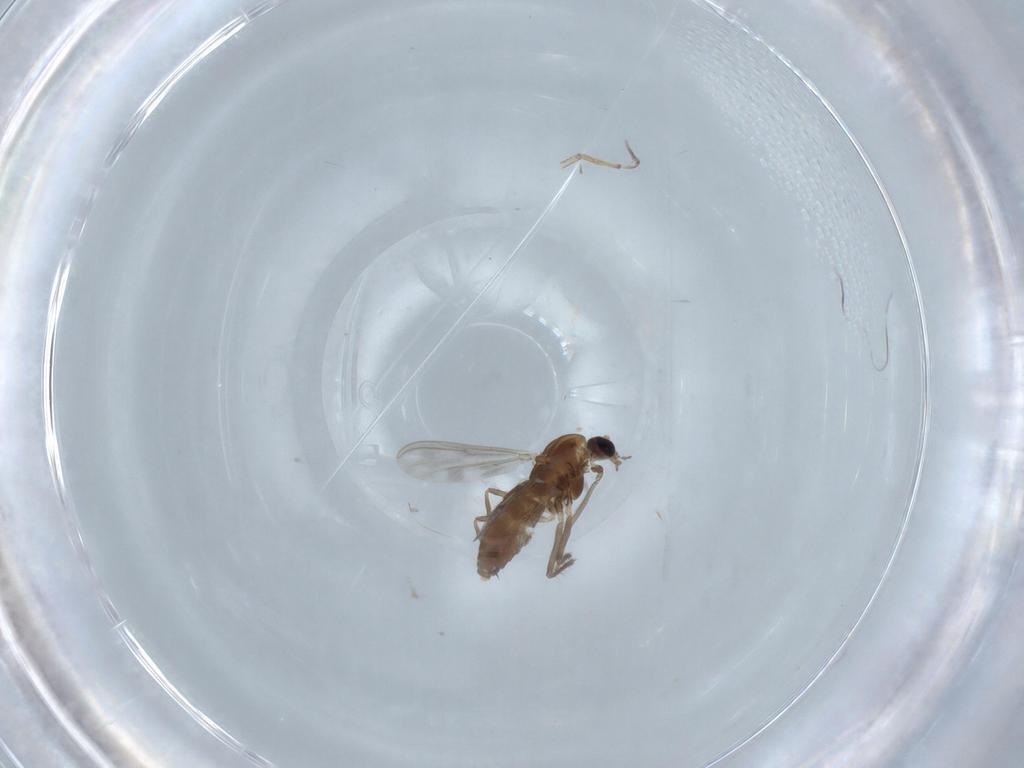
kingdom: Animalia
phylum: Arthropoda
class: Insecta
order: Diptera
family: Chironomidae
